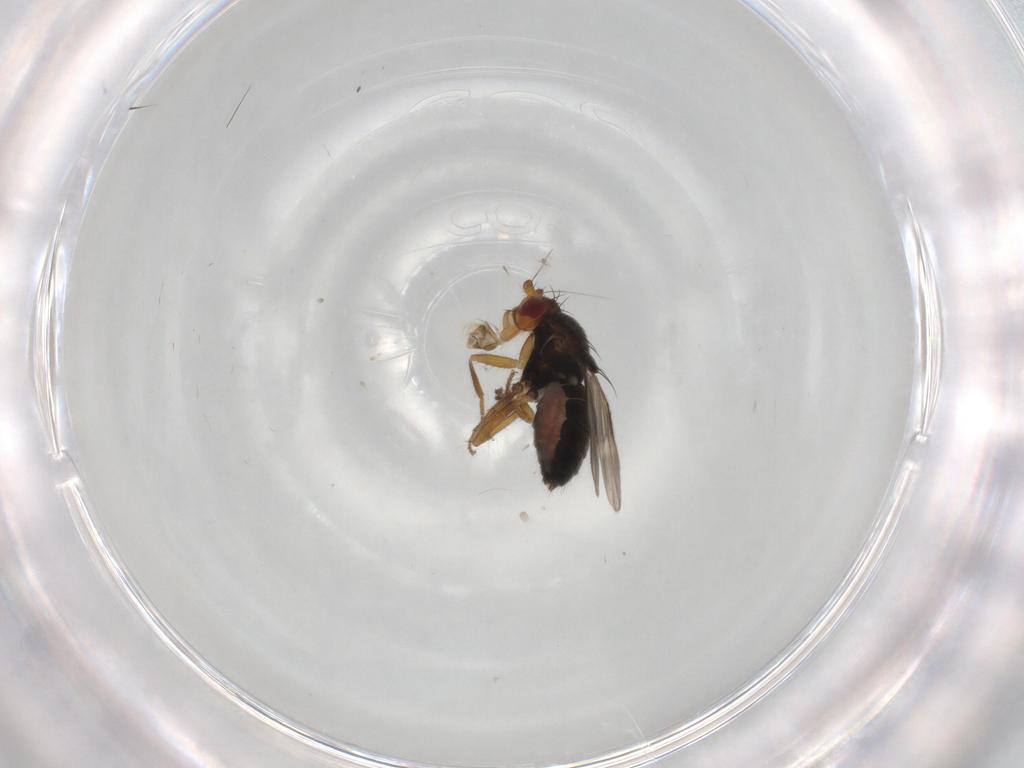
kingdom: Animalia
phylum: Arthropoda
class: Insecta
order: Diptera
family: Sphaeroceridae
